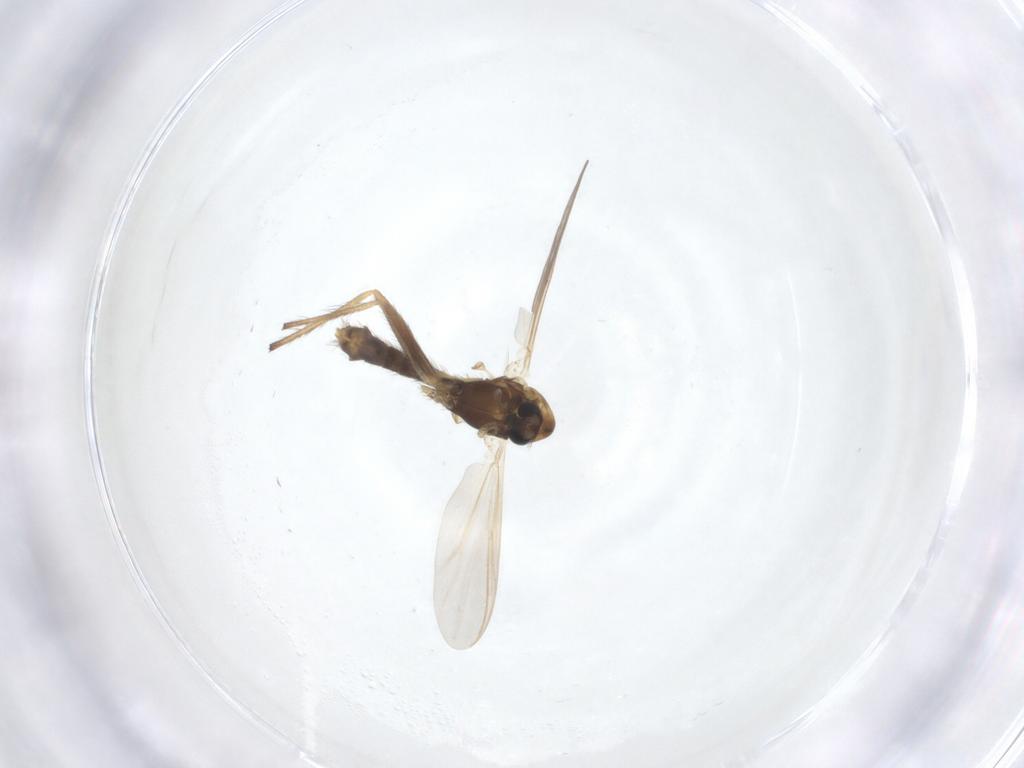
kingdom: Animalia
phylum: Arthropoda
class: Insecta
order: Diptera
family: Chironomidae
